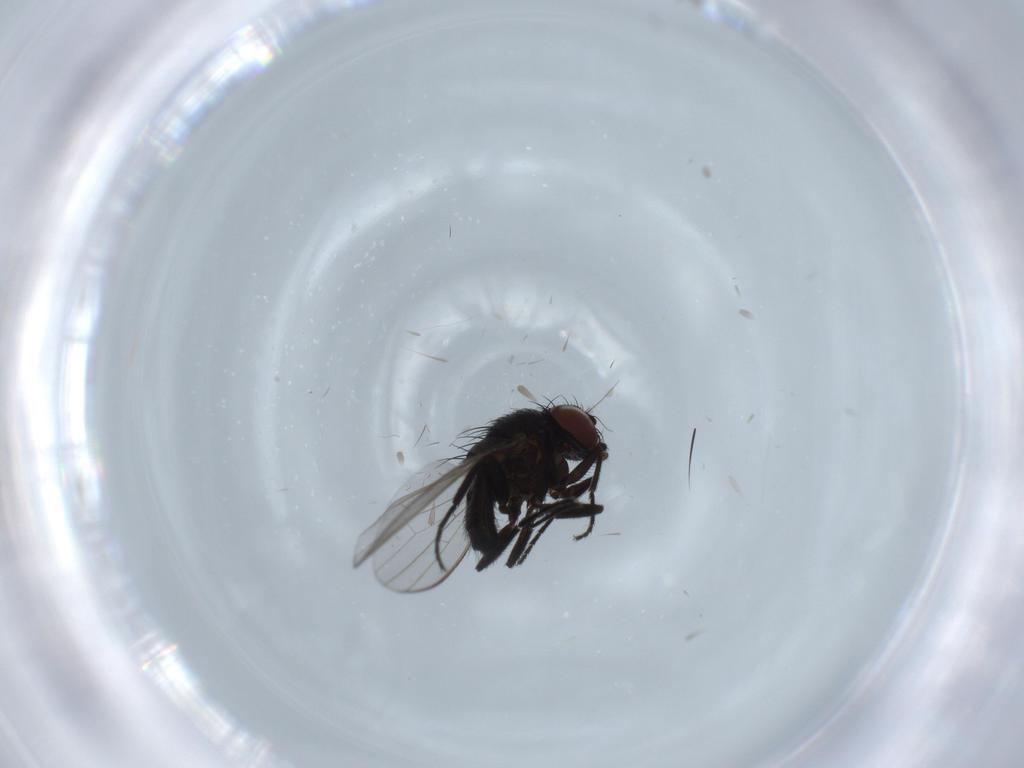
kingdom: Animalia
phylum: Arthropoda
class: Insecta
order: Diptera
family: Milichiidae
